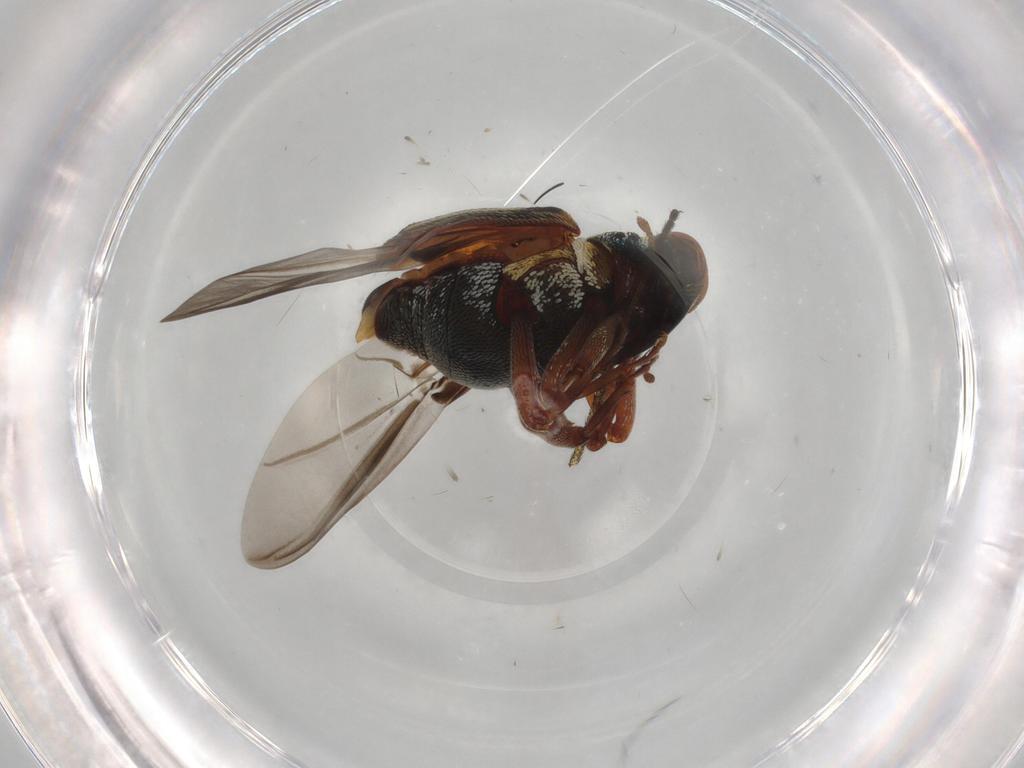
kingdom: Animalia
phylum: Arthropoda
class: Insecta
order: Coleoptera
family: Curculionidae
